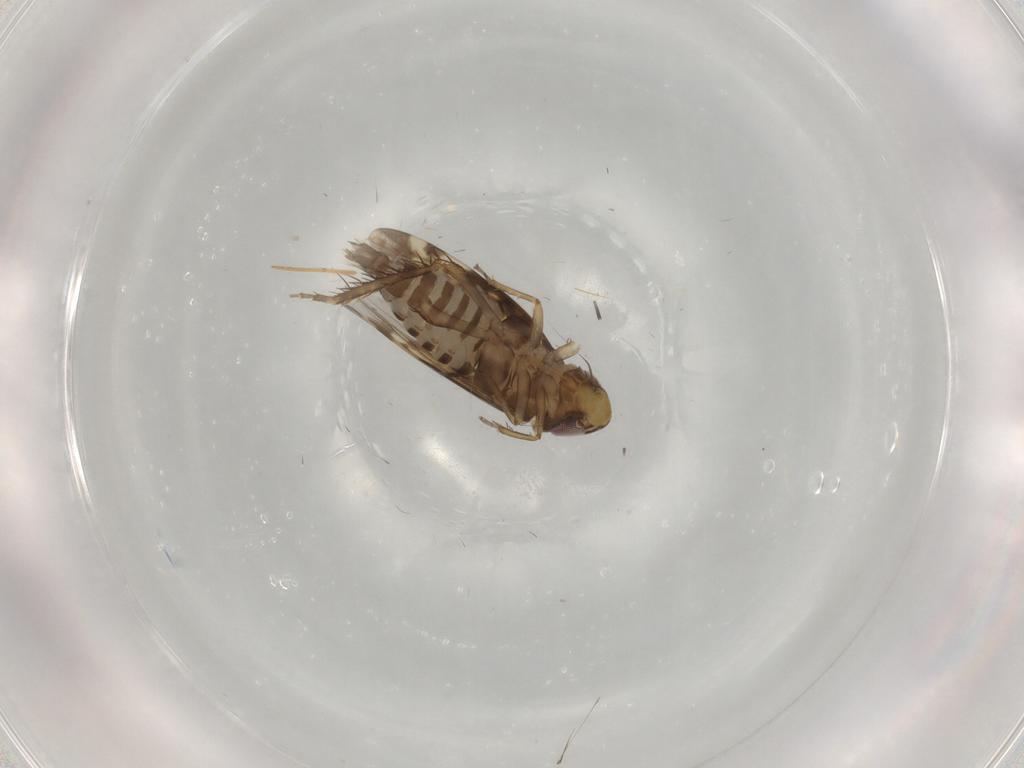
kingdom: Animalia
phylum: Arthropoda
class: Insecta
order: Hemiptera
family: Cicadellidae
